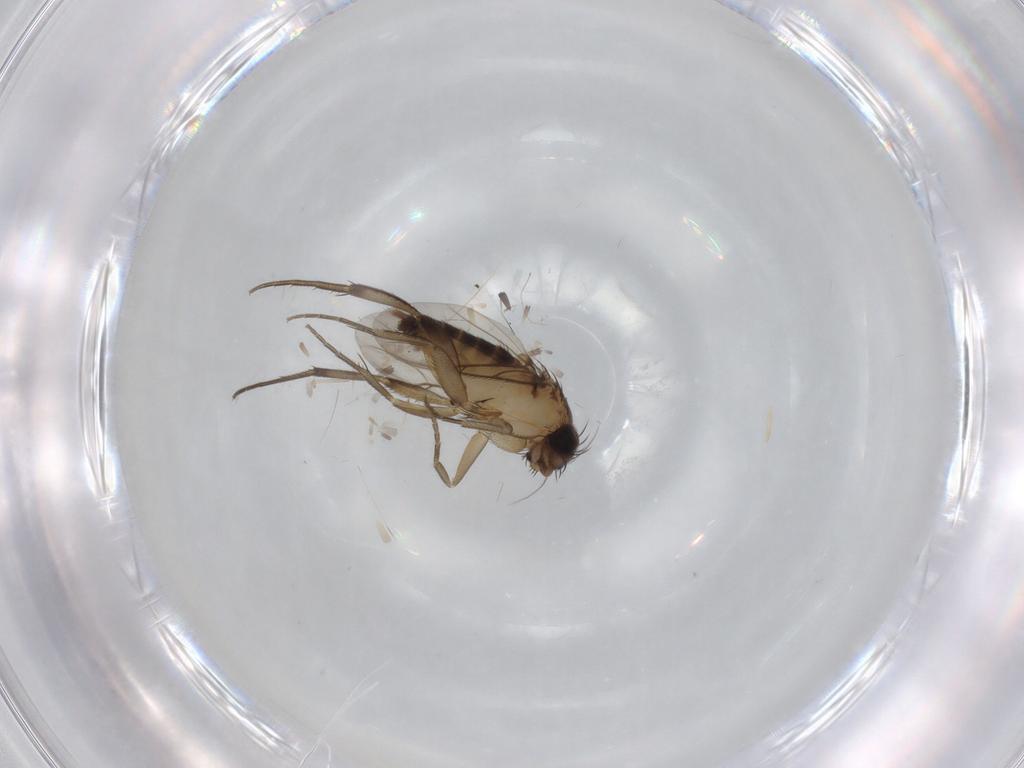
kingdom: Animalia
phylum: Arthropoda
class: Insecta
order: Diptera
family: Phoridae
